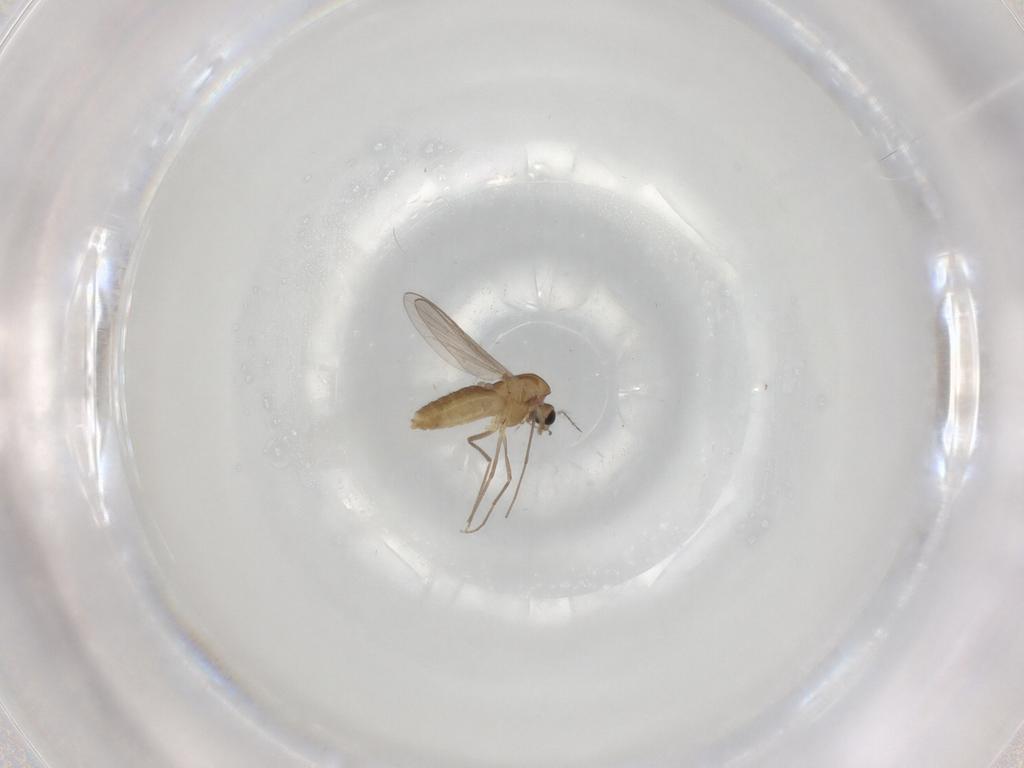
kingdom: Animalia
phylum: Arthropoda
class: Insecta
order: Diptera
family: Chironomidae
